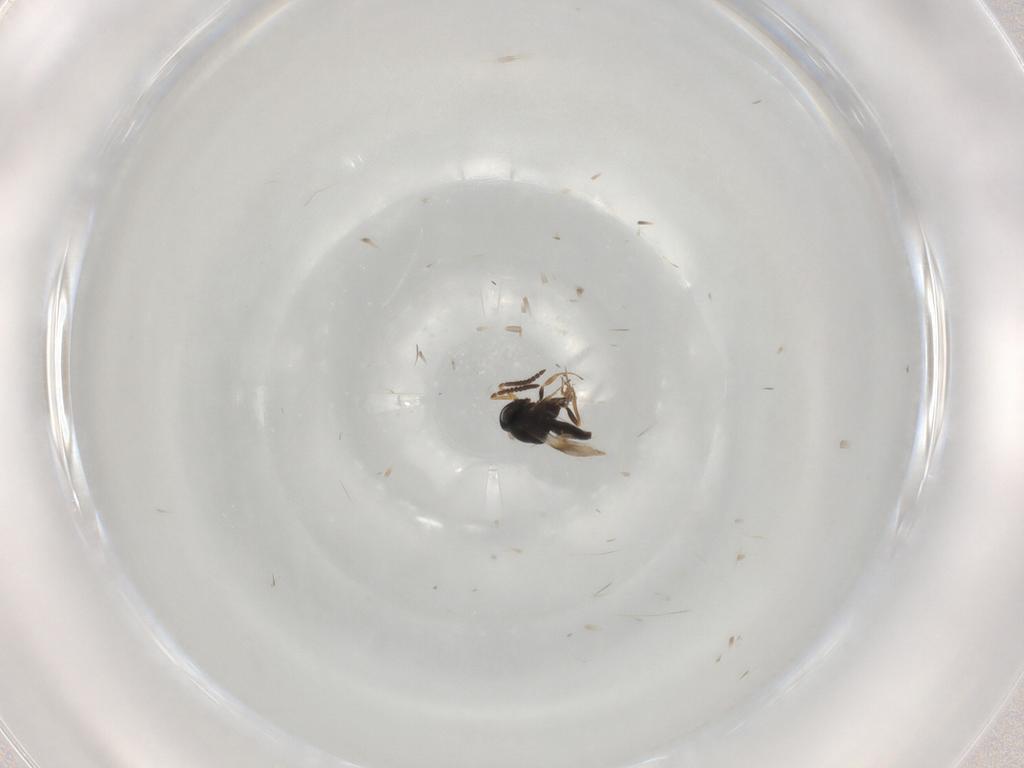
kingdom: Animalia
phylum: Arthropoda
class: Insecta
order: Hymenoptera
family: Scelionidae
